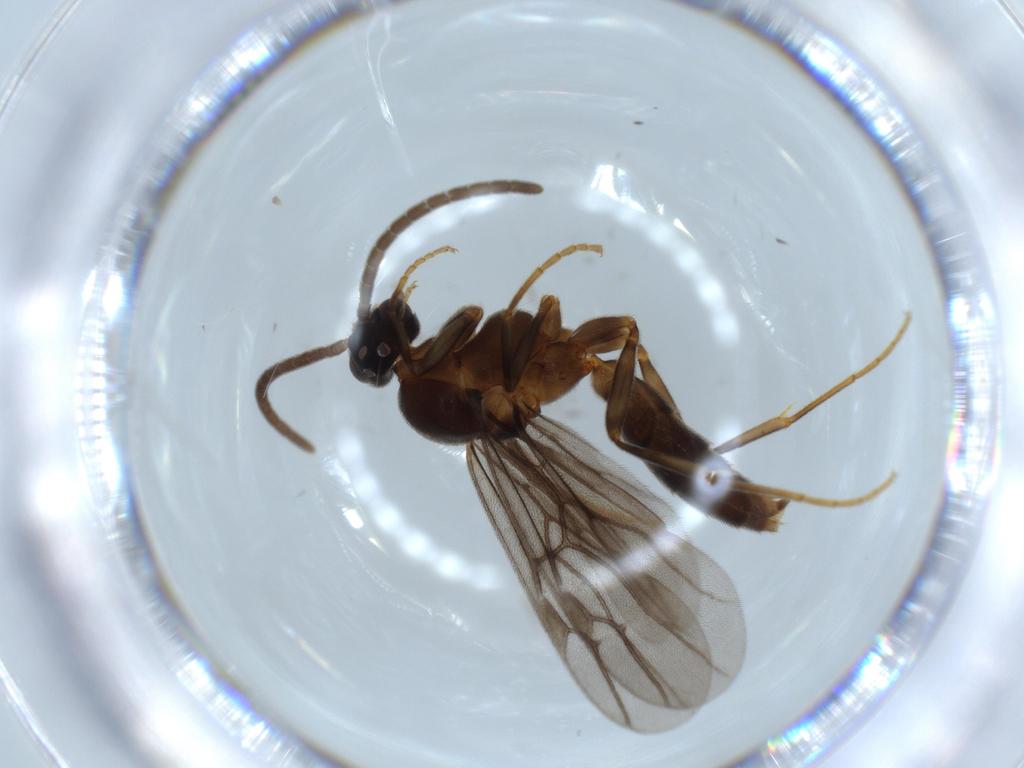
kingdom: Animalia
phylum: Arthropoda
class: Insecta
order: Hymenoptera
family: Formicidae
